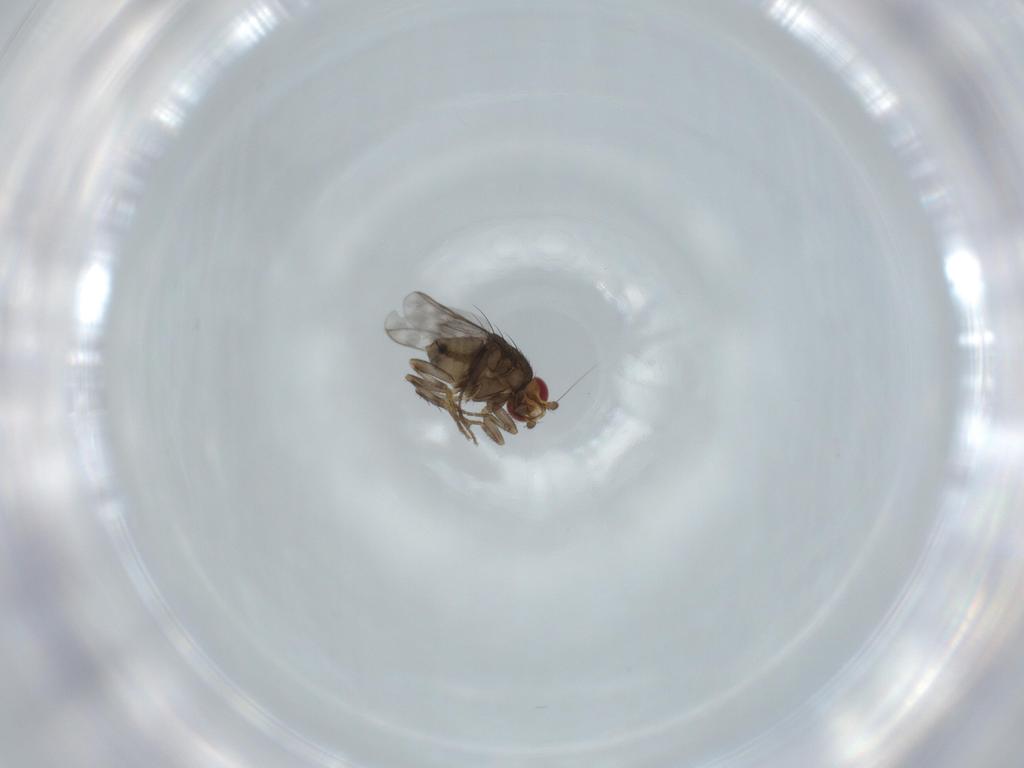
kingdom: Animalia
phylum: Arthropoda
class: Insecta
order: Diptera
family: Sphaeroceridae
